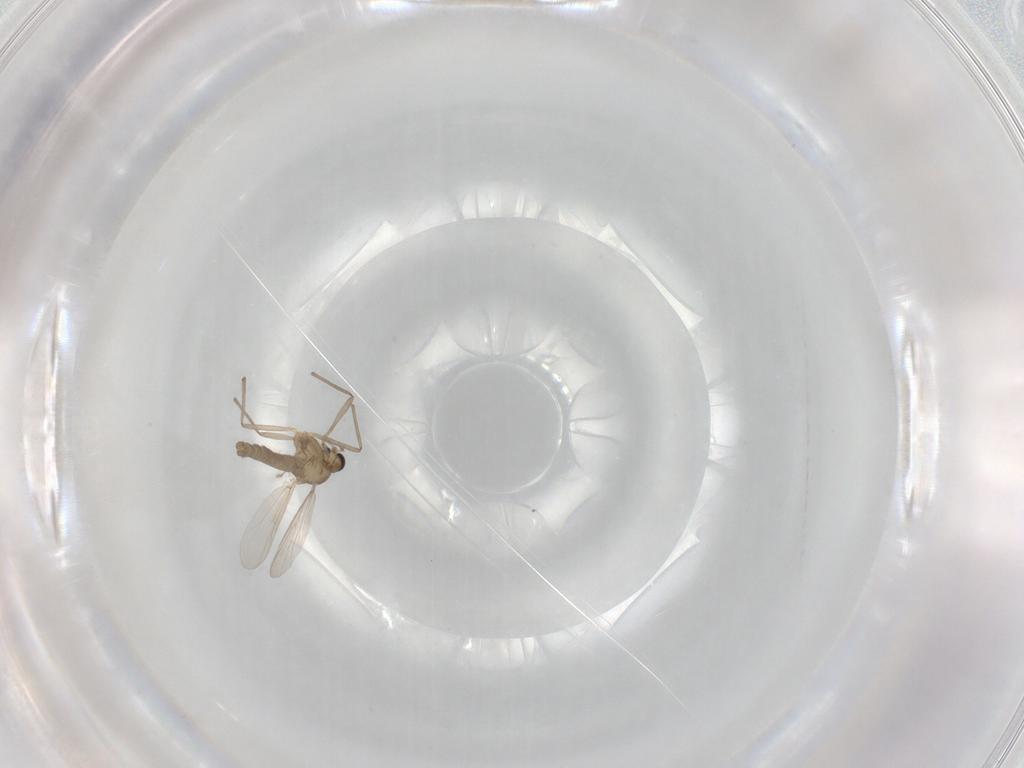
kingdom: Animalia
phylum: Arthropoda
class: Insecta
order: Diptera
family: Chironomidae
